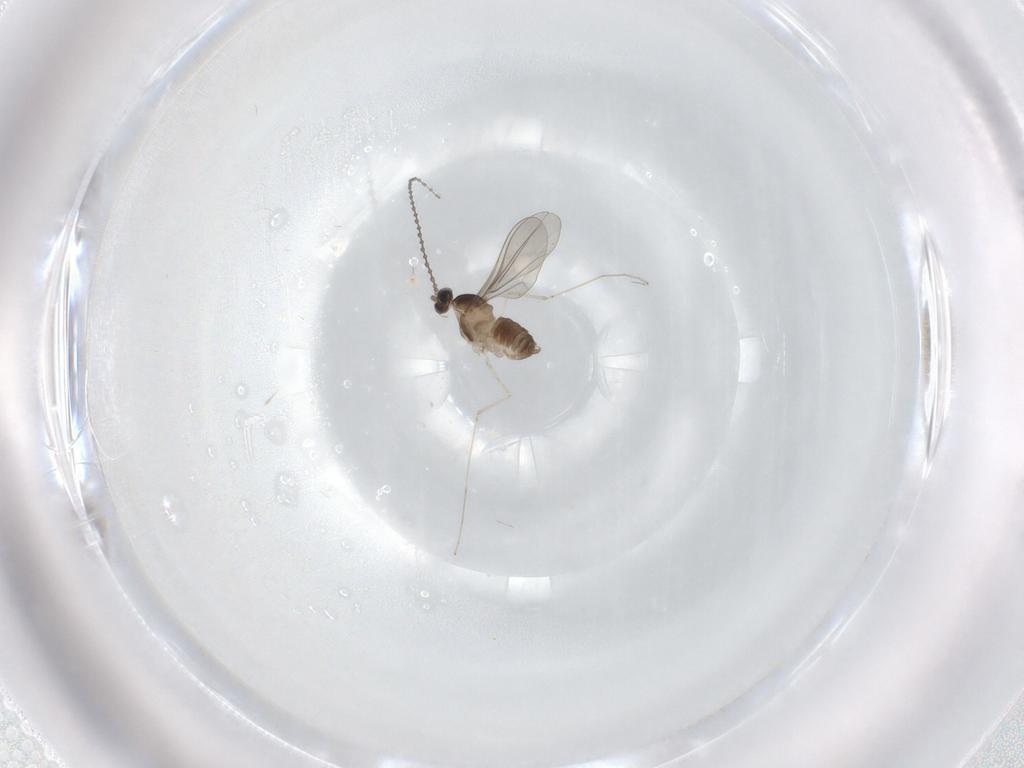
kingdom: Animalia
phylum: Arthropoda
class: Insecta
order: Diptera
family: Cecidomyiidae
